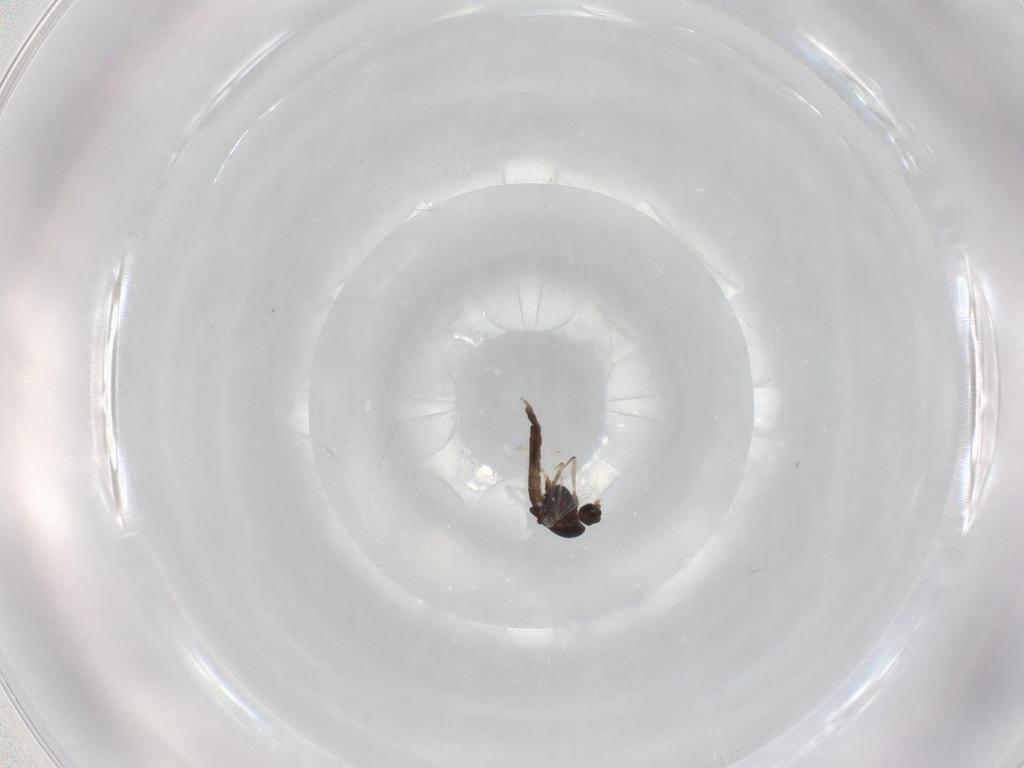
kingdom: Animalia
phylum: Arthropoda
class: Insecta
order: Diptera
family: Chironomidae
